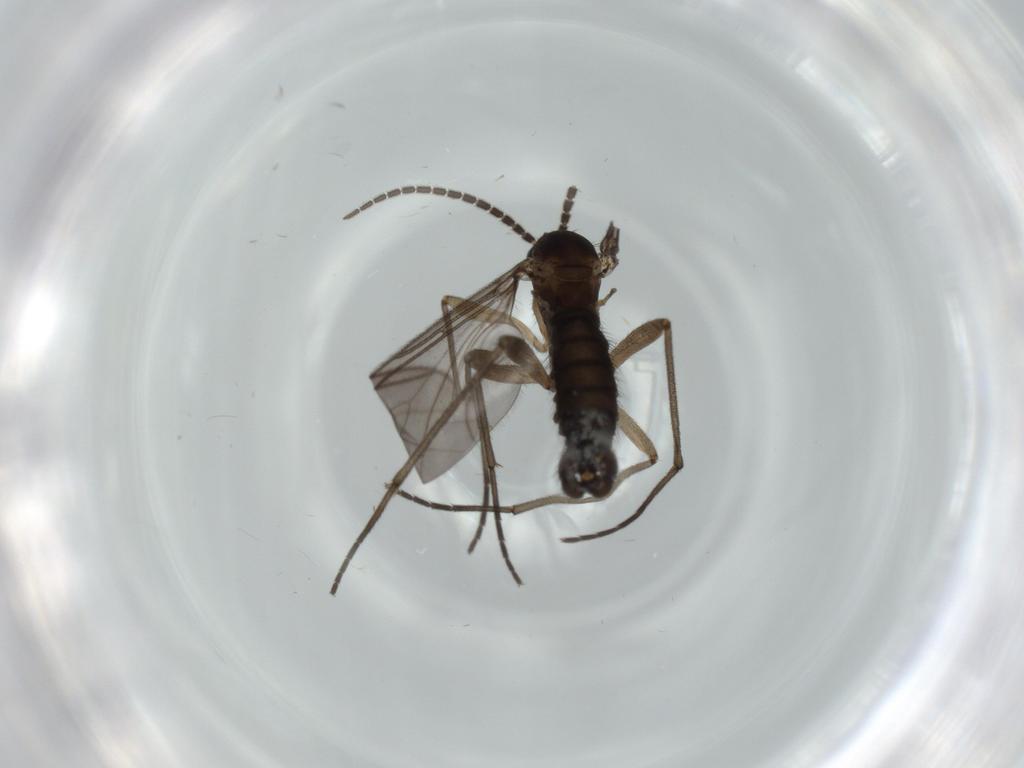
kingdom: Animalia
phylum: Arthropoda
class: Insecta
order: Diptera
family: Sciaridae
